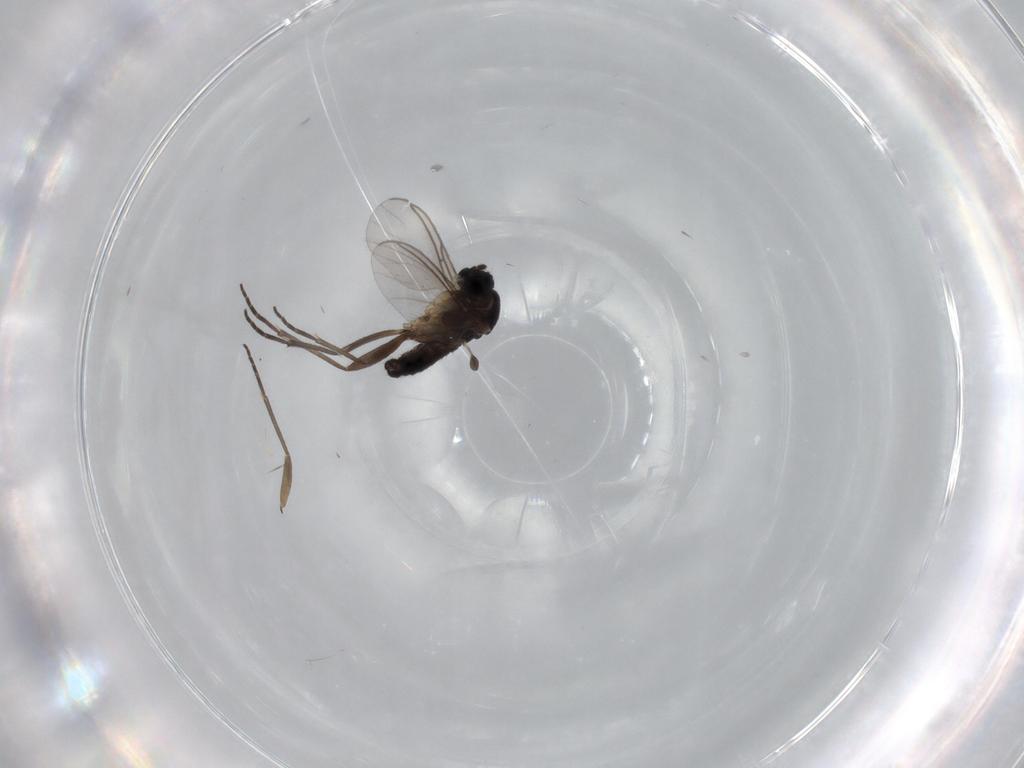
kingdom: Animalia
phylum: Arthropoda
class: Insecta
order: Diptera
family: Sciaridae
